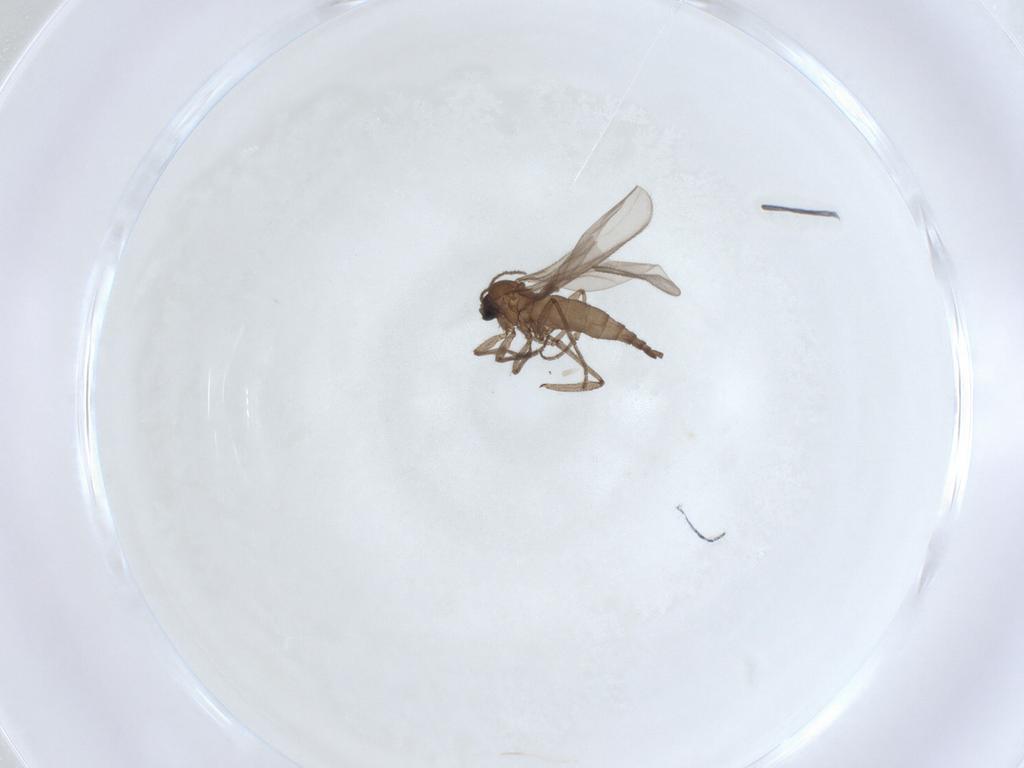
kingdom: Animalia
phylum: Arthropoda
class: Insecta
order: Diptera
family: Sciaridae
